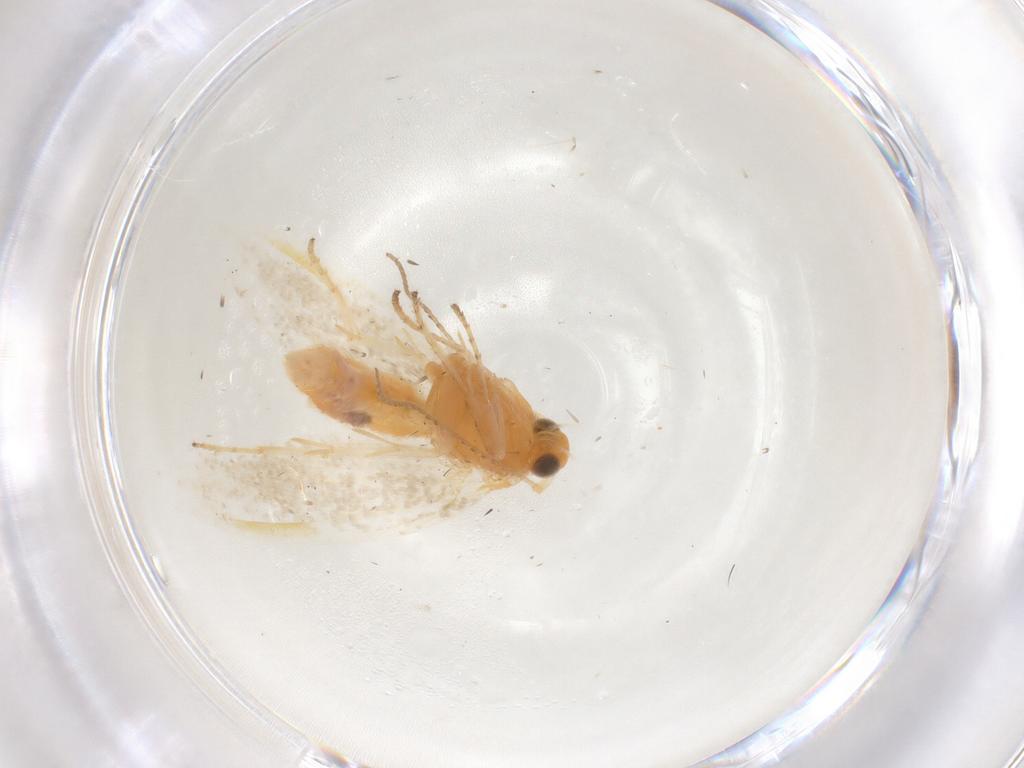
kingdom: Animalia
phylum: Arthropoda
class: Insecta
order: Lepidoptera
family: Argyresthiidae
